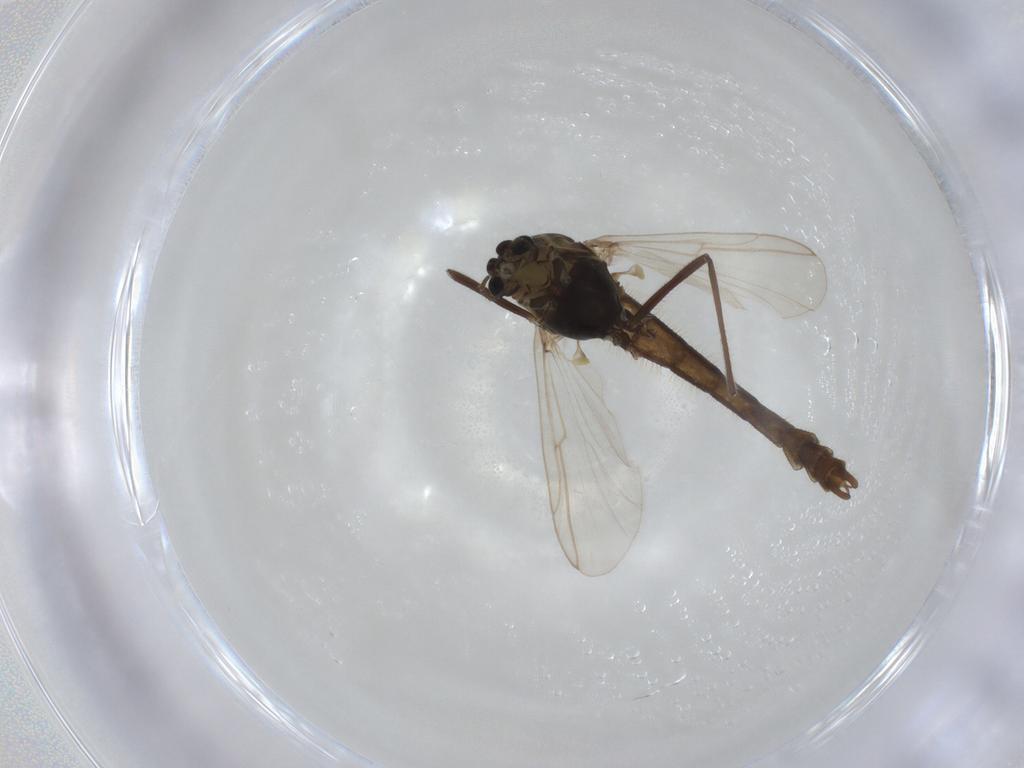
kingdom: Animalia
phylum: Arthropoda
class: Insecta
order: Diptera
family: Chironomidae
